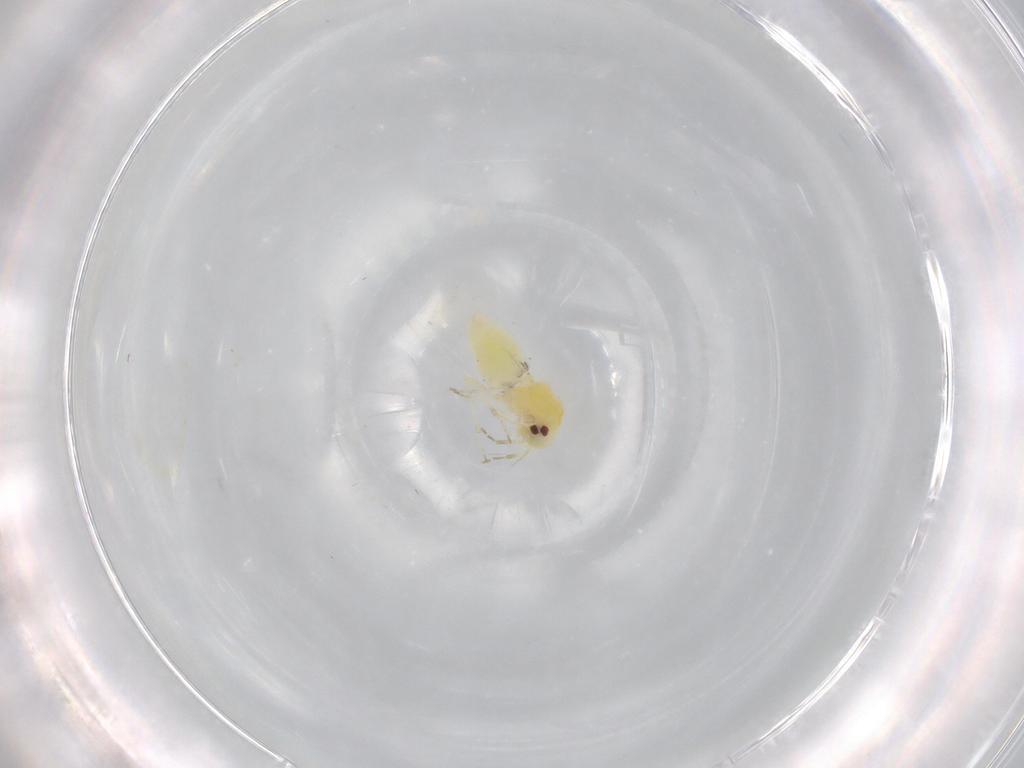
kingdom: Animalia
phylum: Arthropoda
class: Insecta
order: Hemiptera
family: Aleyrodidae
